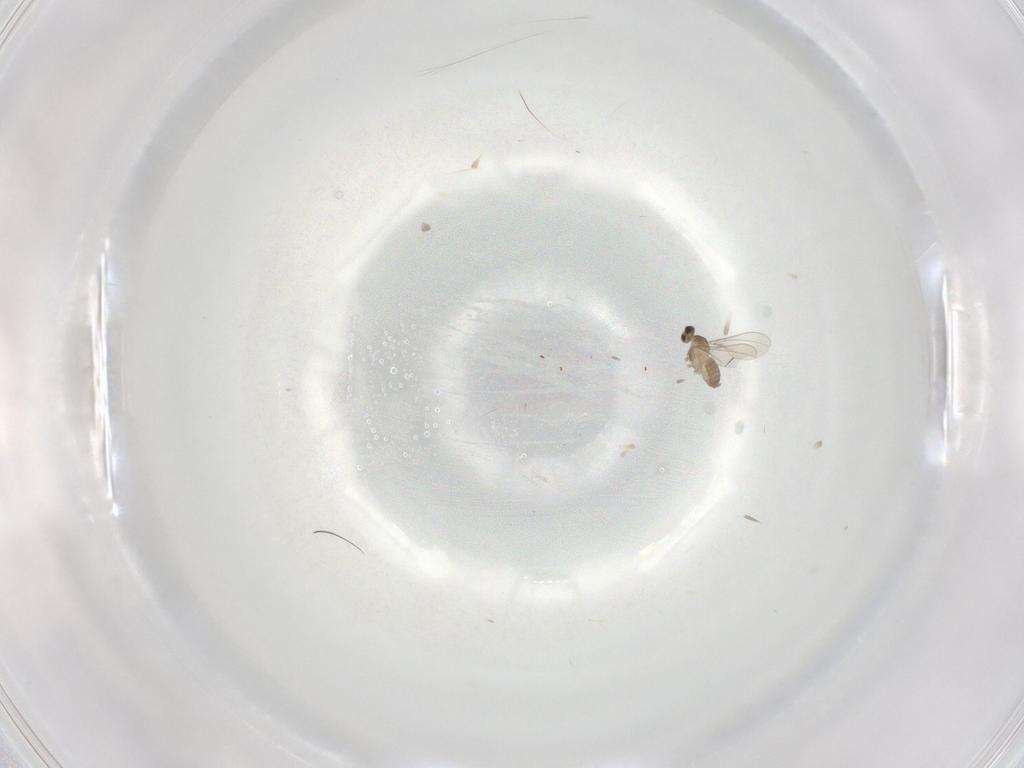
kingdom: Animalia
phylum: Arthropoda
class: Insecta
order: Diptera
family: Cecidomyiidae
